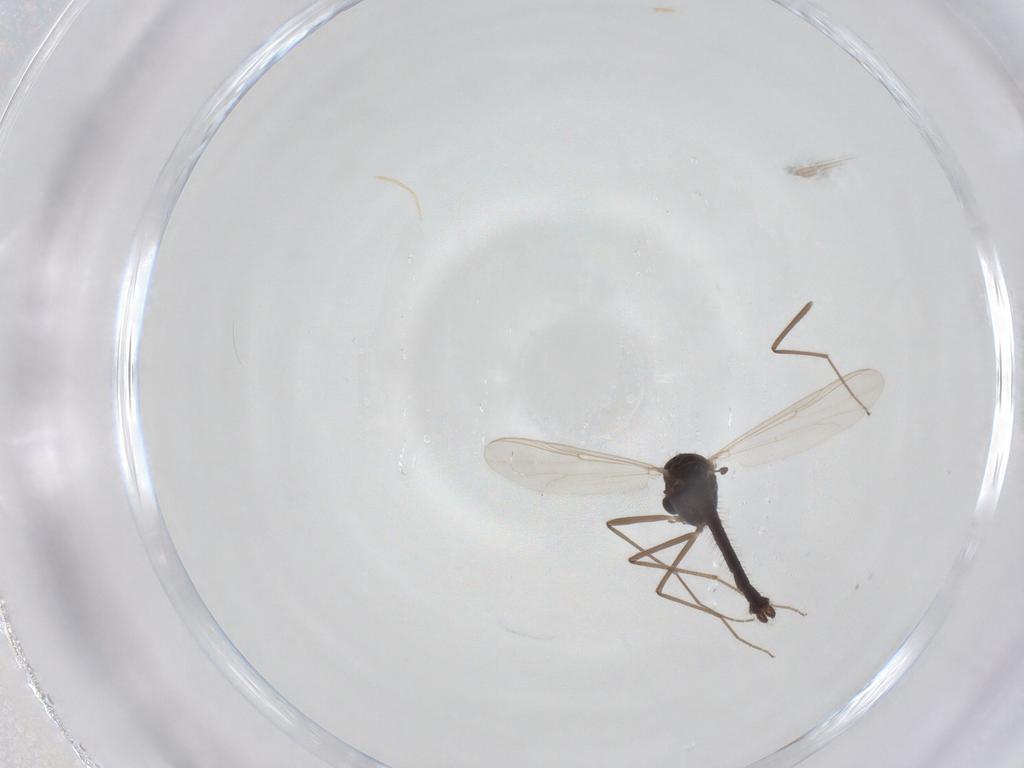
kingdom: Animalia
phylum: Arthropoda
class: Insecta
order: Diptera
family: Chironomidae
